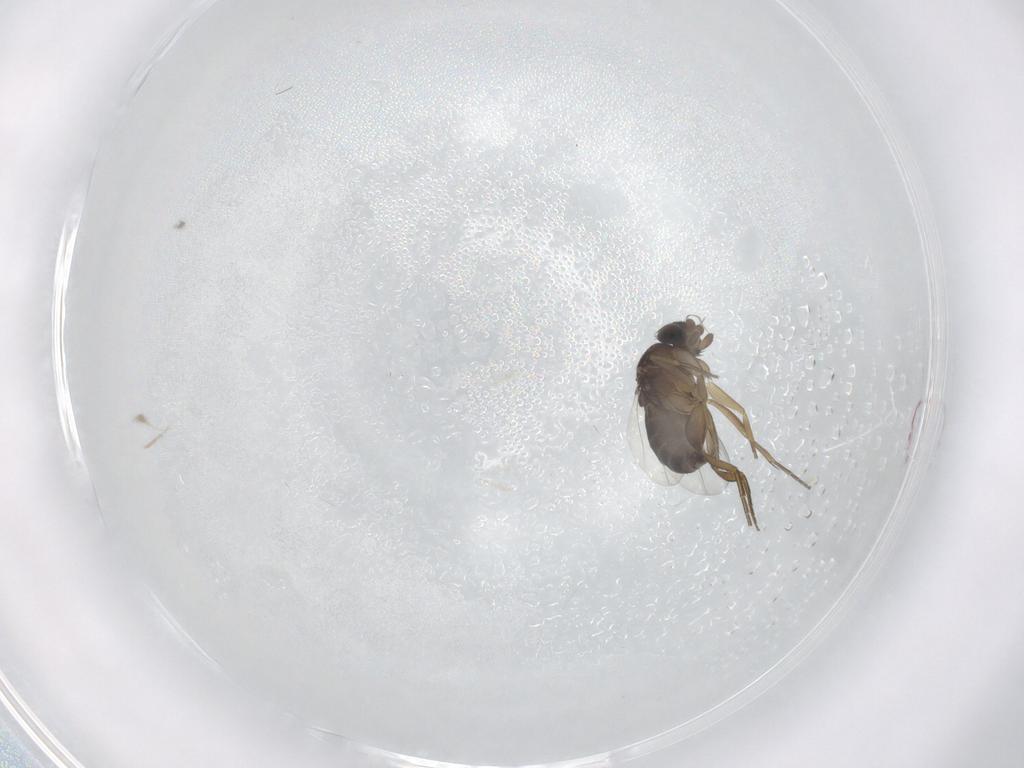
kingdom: Animalia
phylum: Arthropoda
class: Insecta
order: Diptera
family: Phoridae
